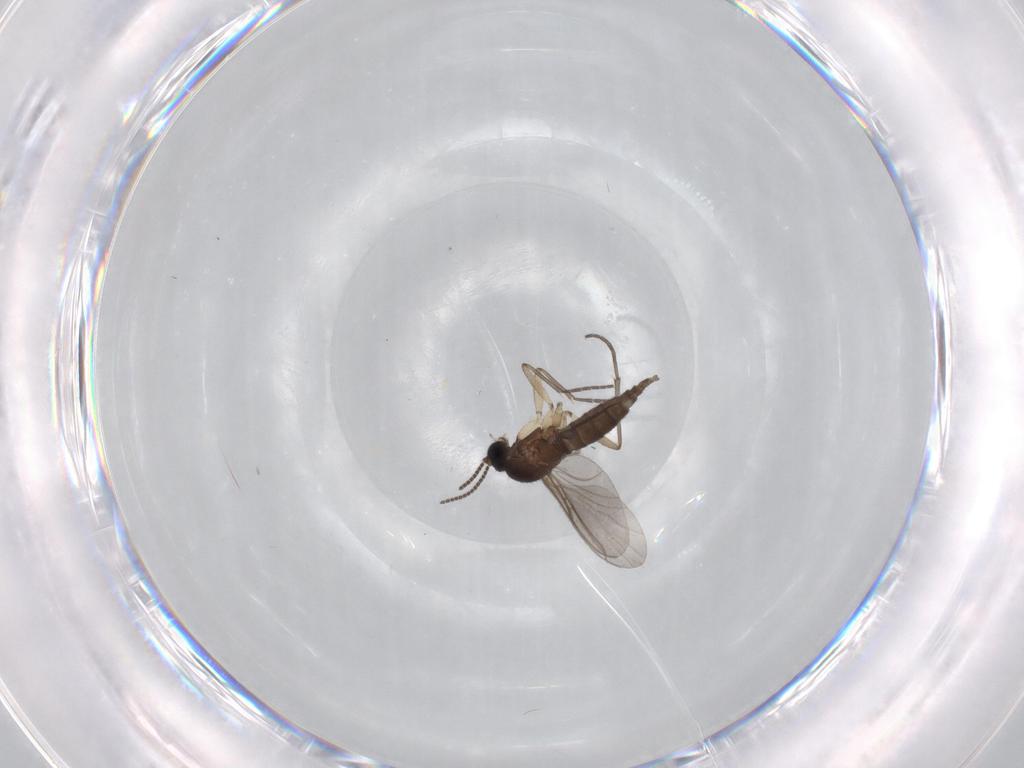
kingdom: Animalia
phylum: Arthropoda
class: Insecta
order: Diptera
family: Sciaridae
